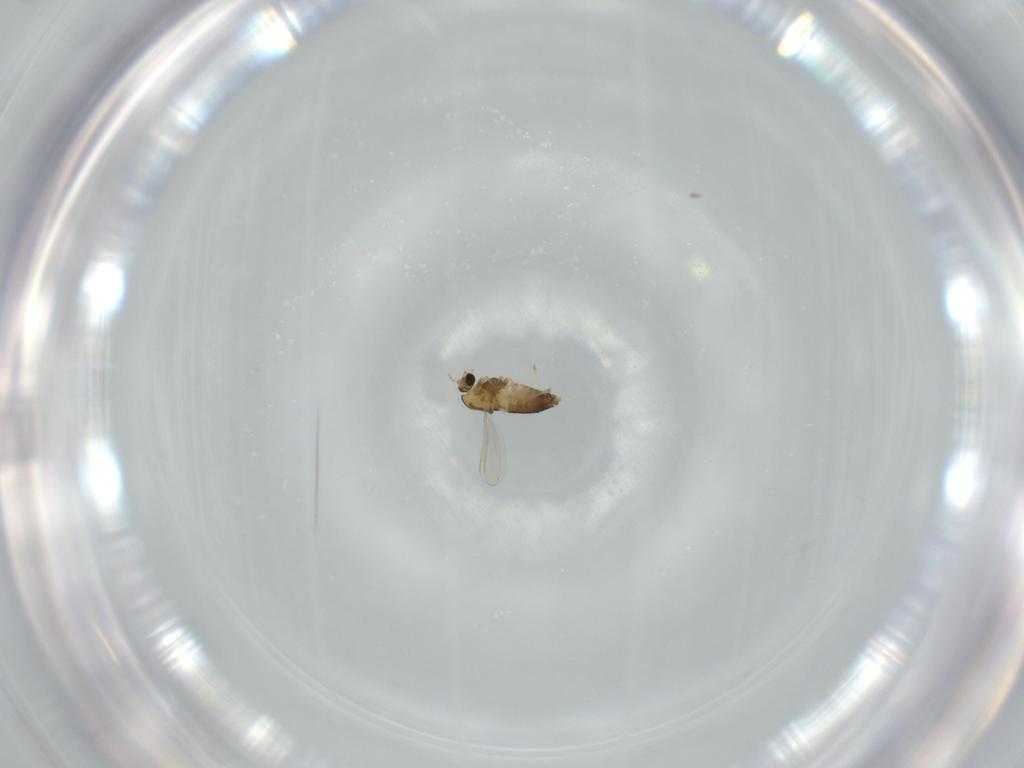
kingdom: Animalia
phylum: Arthropoda
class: Insecta
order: Diptera
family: Chironomidae
